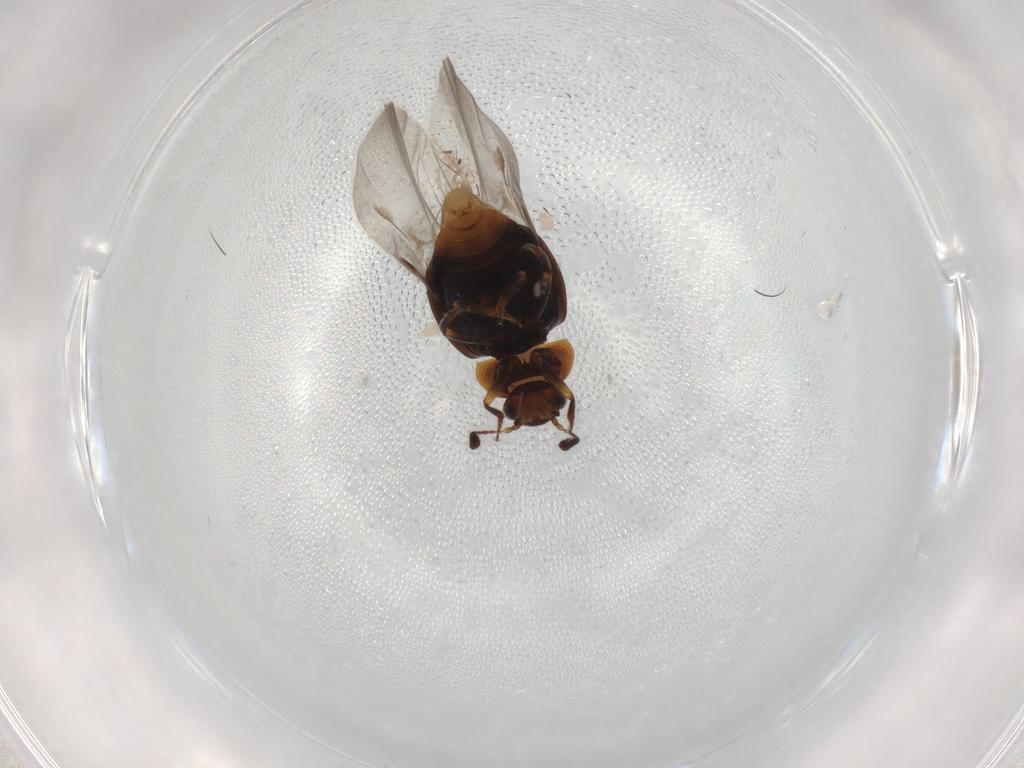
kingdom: Animalia
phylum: Arthropoda
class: Insecta
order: Coleoptera
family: Staphylinidae
